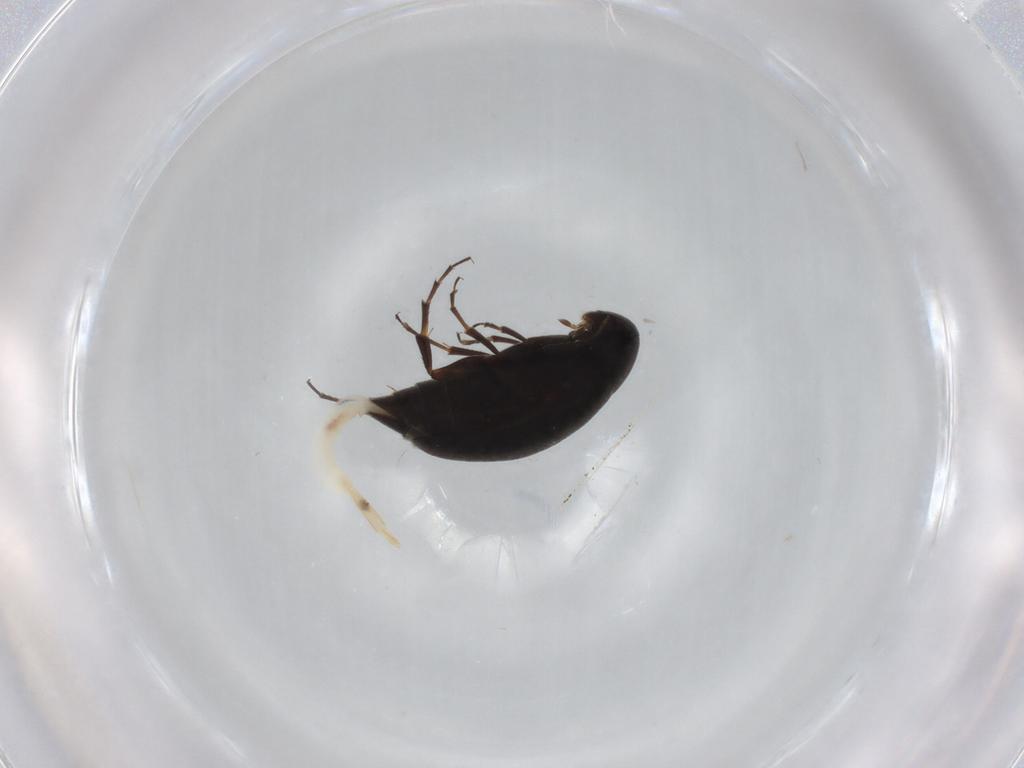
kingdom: Animalia
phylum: Arthropoda
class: Insecta
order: Coleoptera
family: Scraptiidae
